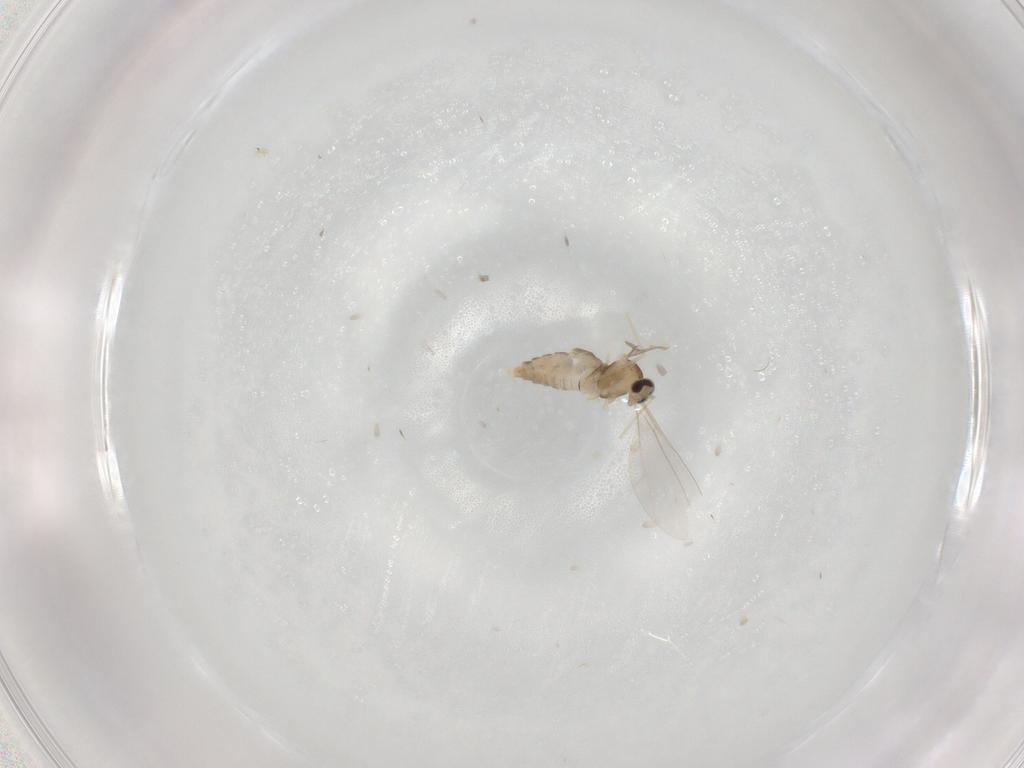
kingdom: Animalia
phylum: Arthropoda
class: Insecta
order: Diptera
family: Cecidomyiidae
